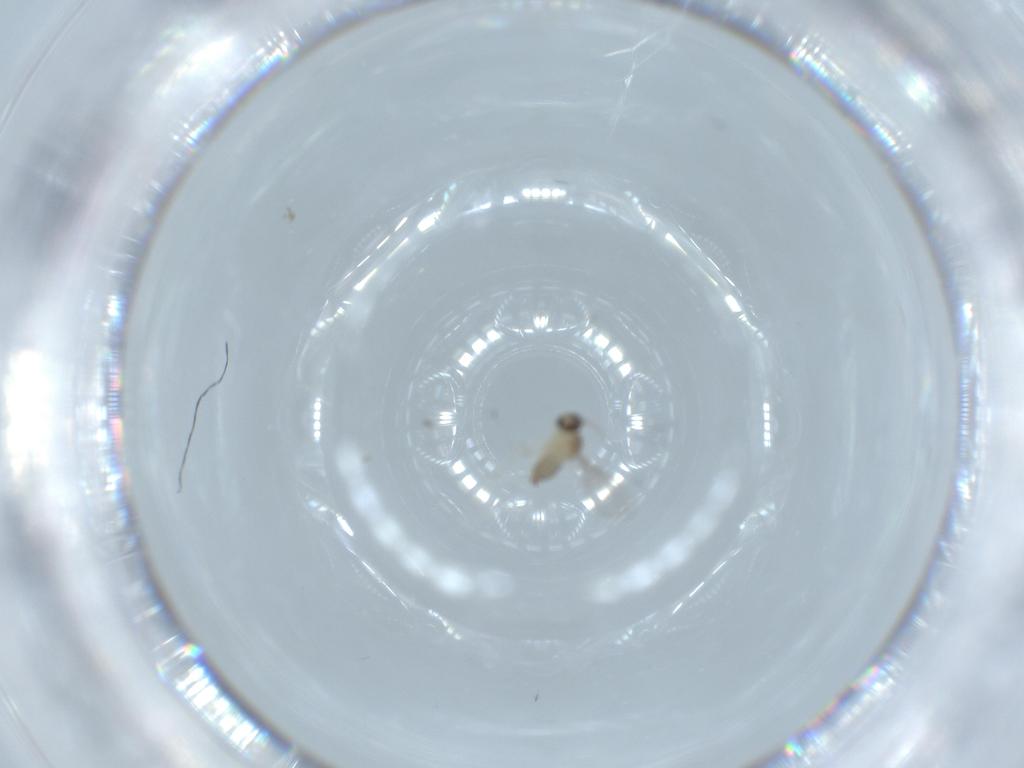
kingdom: Animalia
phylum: Arthropoda
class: Insecta
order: Diptera
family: Cecidomyiidae
